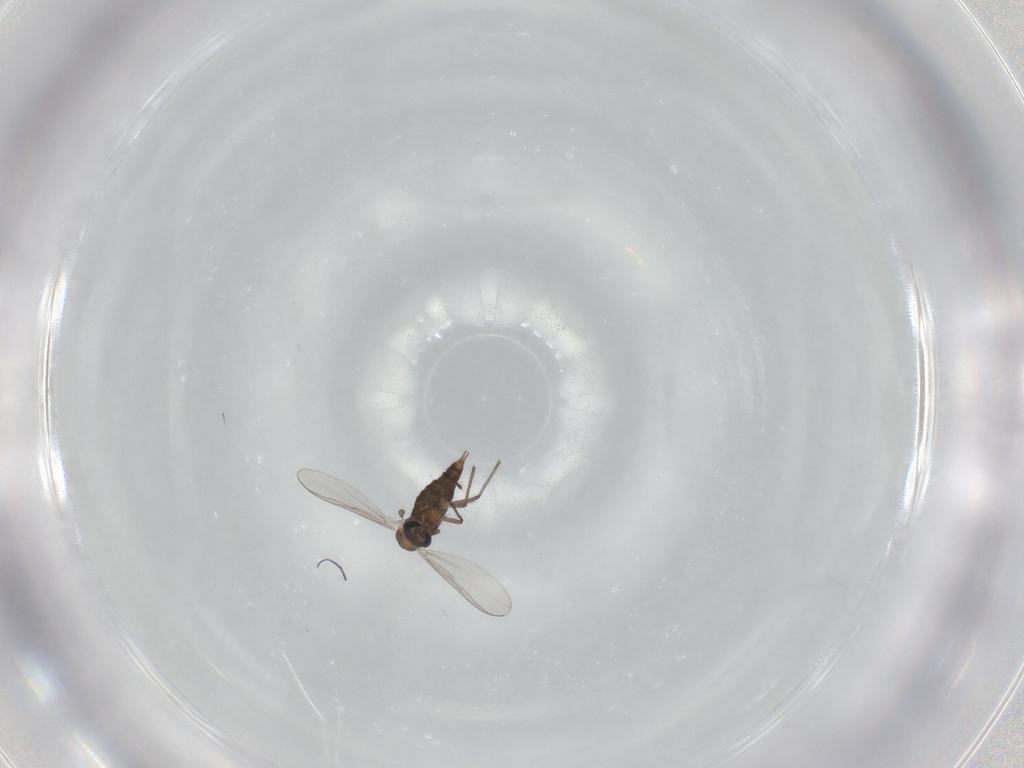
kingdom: Animalia
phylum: Arthropoda
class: Insecta
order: Diptera
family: Chironomidae
